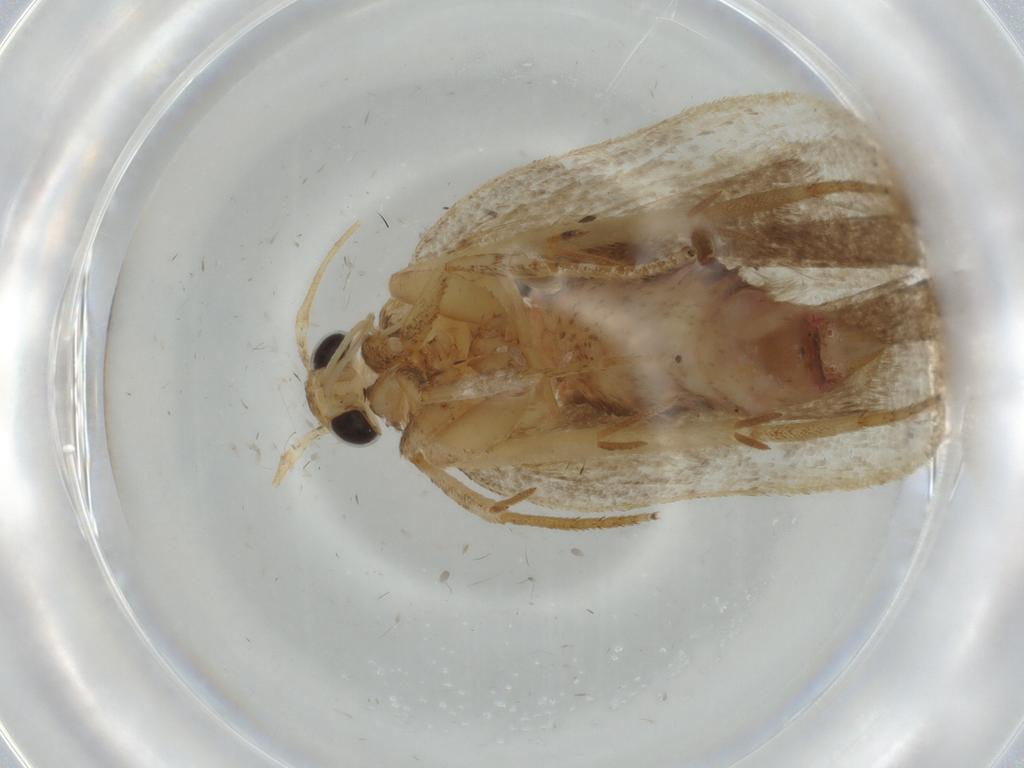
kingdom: Animalia
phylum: Arthropoda
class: Insecta
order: Lepidoptera
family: Autostichidae
